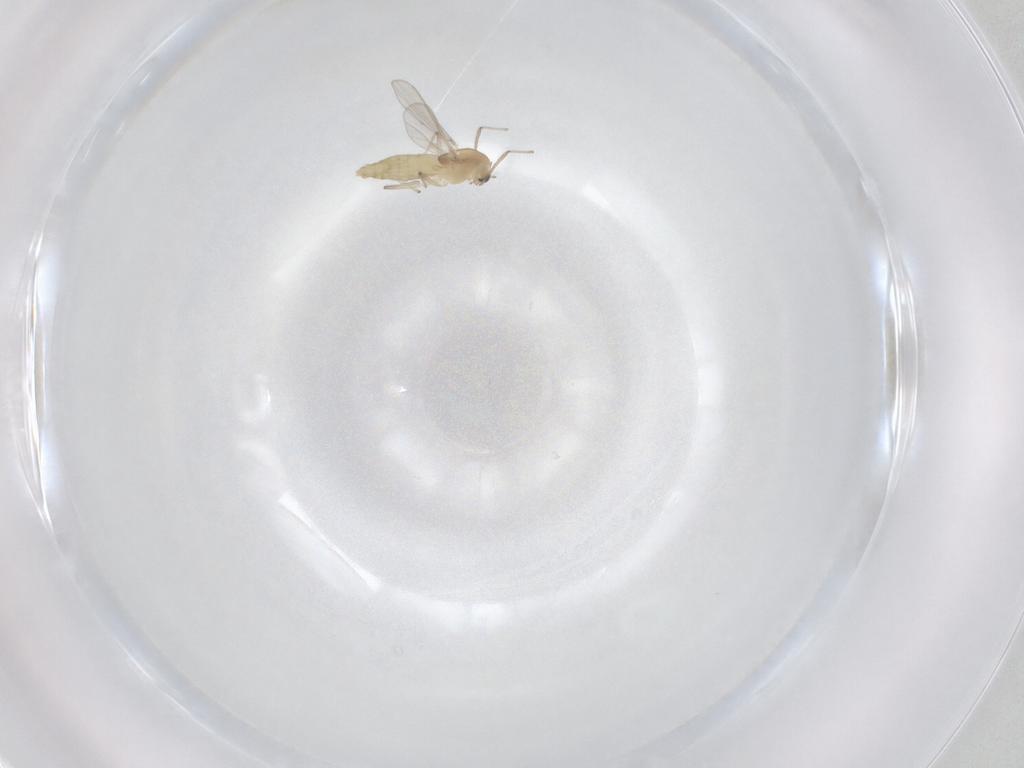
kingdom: Animalia
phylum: Arthropoda
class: Insecta
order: Diptera
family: Chironomidae
